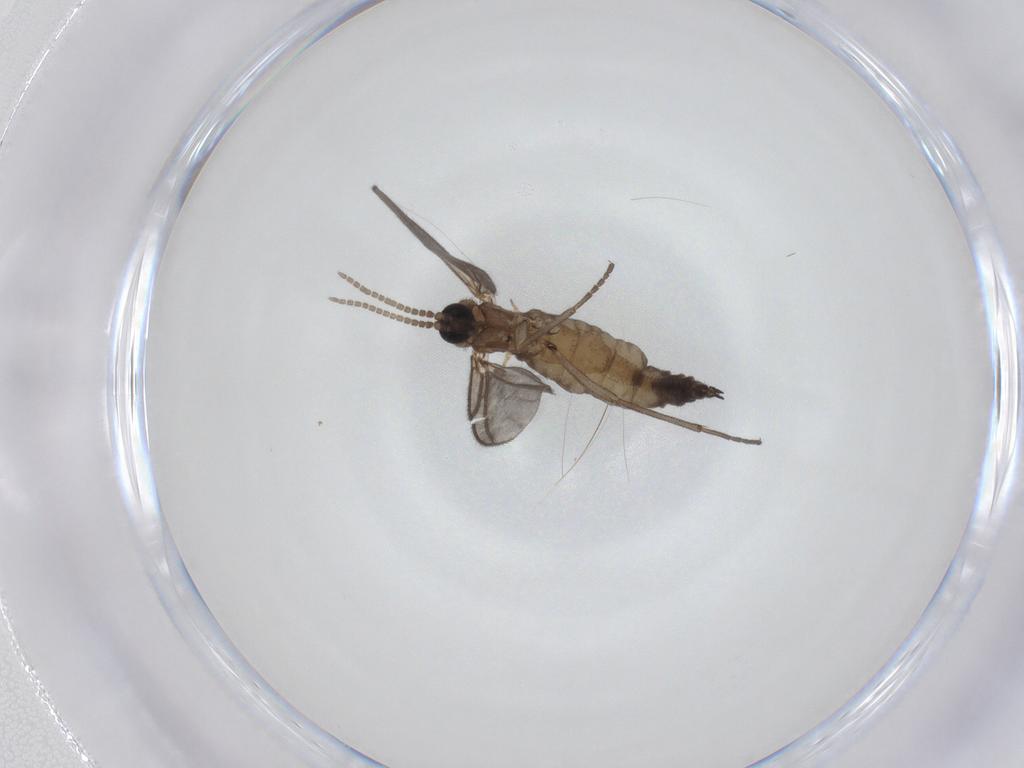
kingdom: Animalia
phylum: Arthropoda
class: Insecta
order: Diptera
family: Sciaridae
